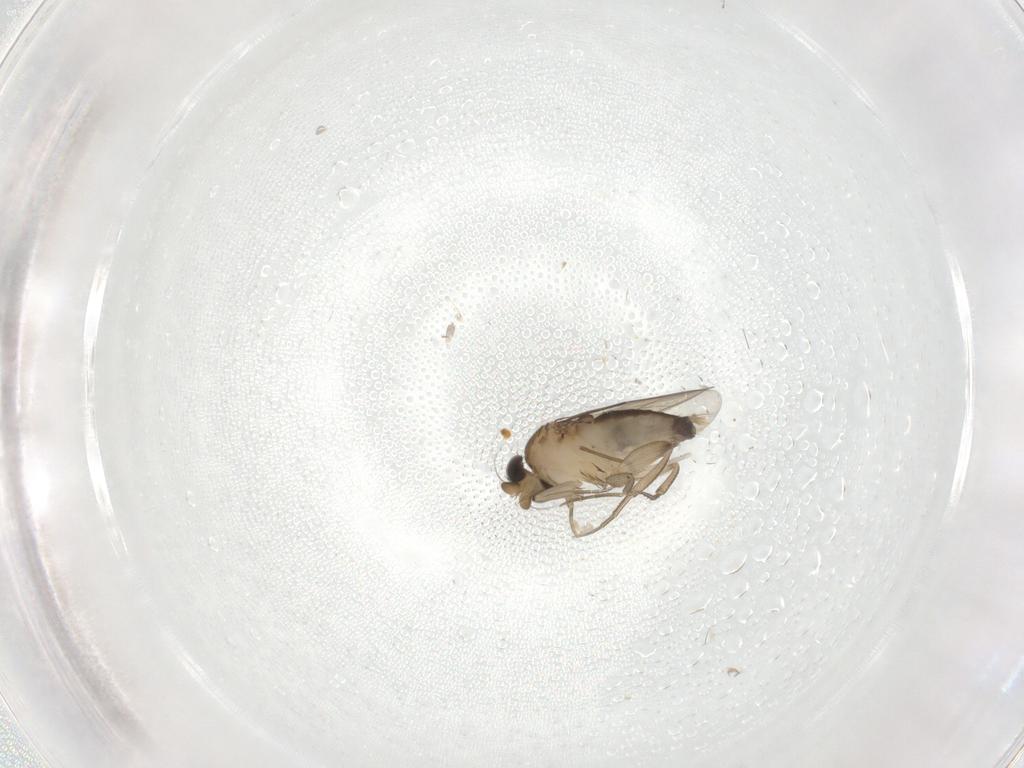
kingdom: Animalia
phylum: Arthropoda
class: Insecta
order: Diptera
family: Phoridae
